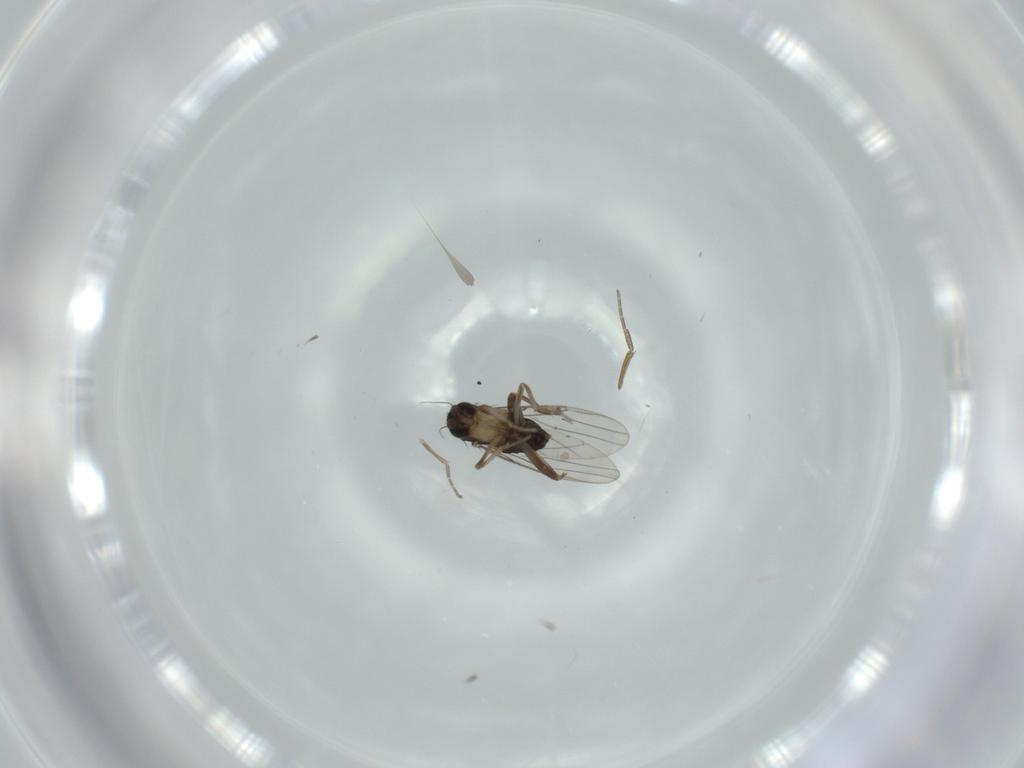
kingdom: Animalia
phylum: Arthropoda
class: Insecta
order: Diptera
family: Phoridae
